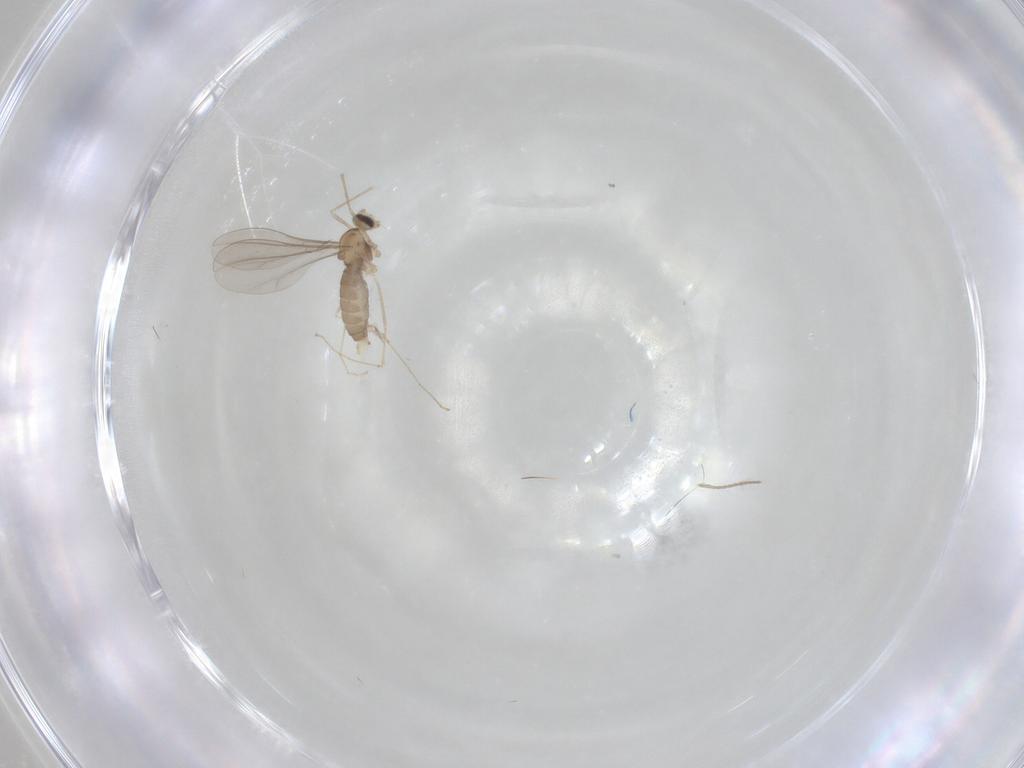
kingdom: Animalia
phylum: Arthropoda
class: Insecta
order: Diptera
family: Cecidomyiidae
